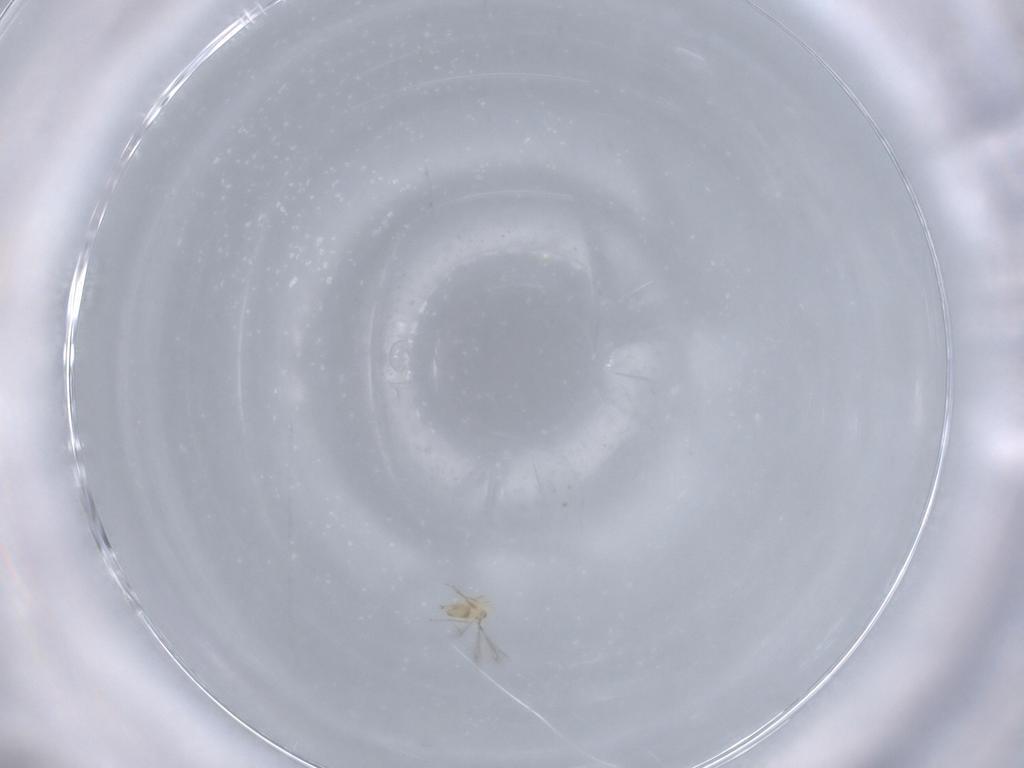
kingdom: Animalia
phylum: Arthropoda
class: Insecta
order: Hymenoptera
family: Mymaridae
